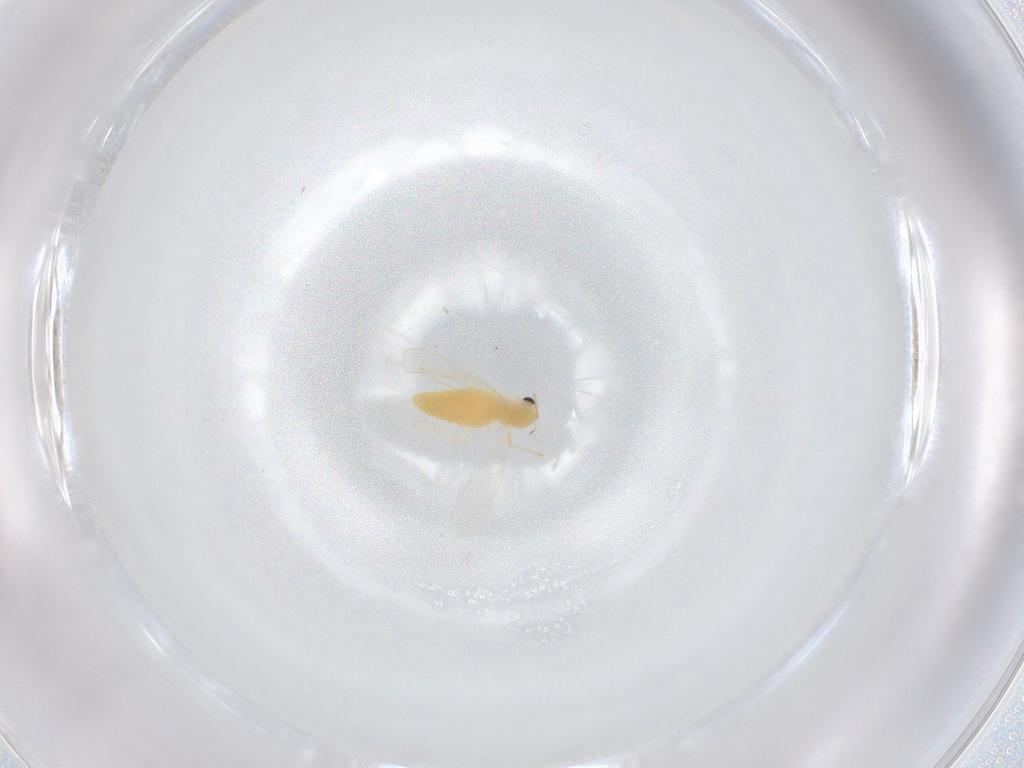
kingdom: Animalia
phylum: Arthropoda
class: Insecta
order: Diptera
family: Chironomidae
